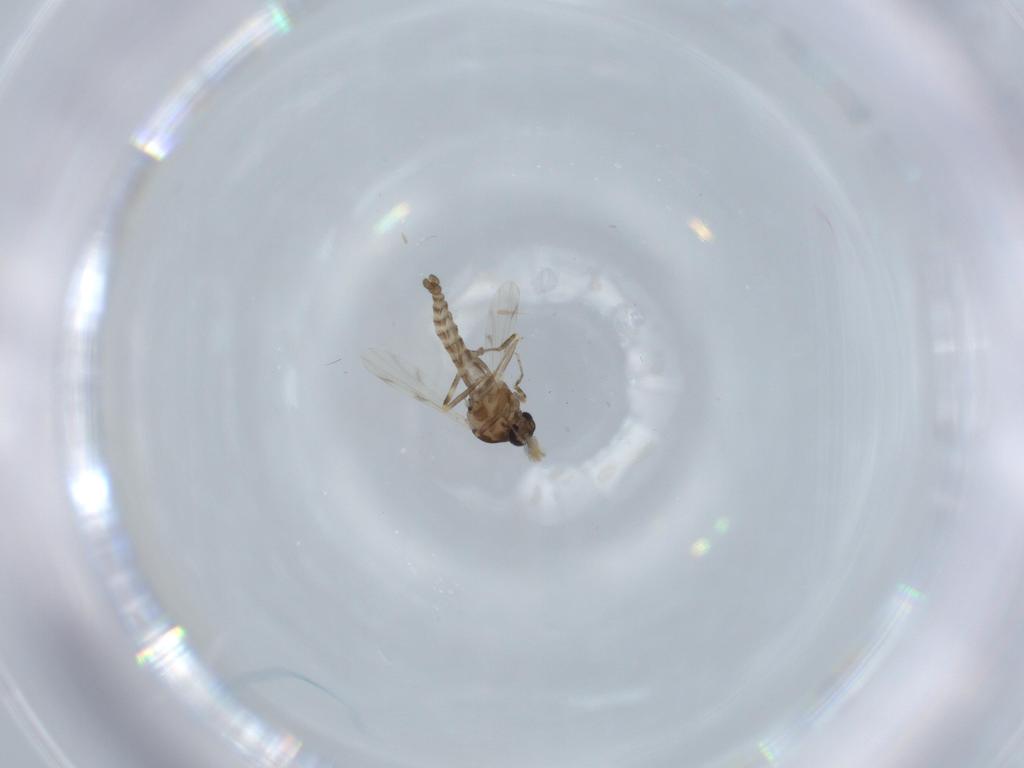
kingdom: Animalia
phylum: Arthropoda
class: Insecta
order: Diptera
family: Ceratopogonidae
